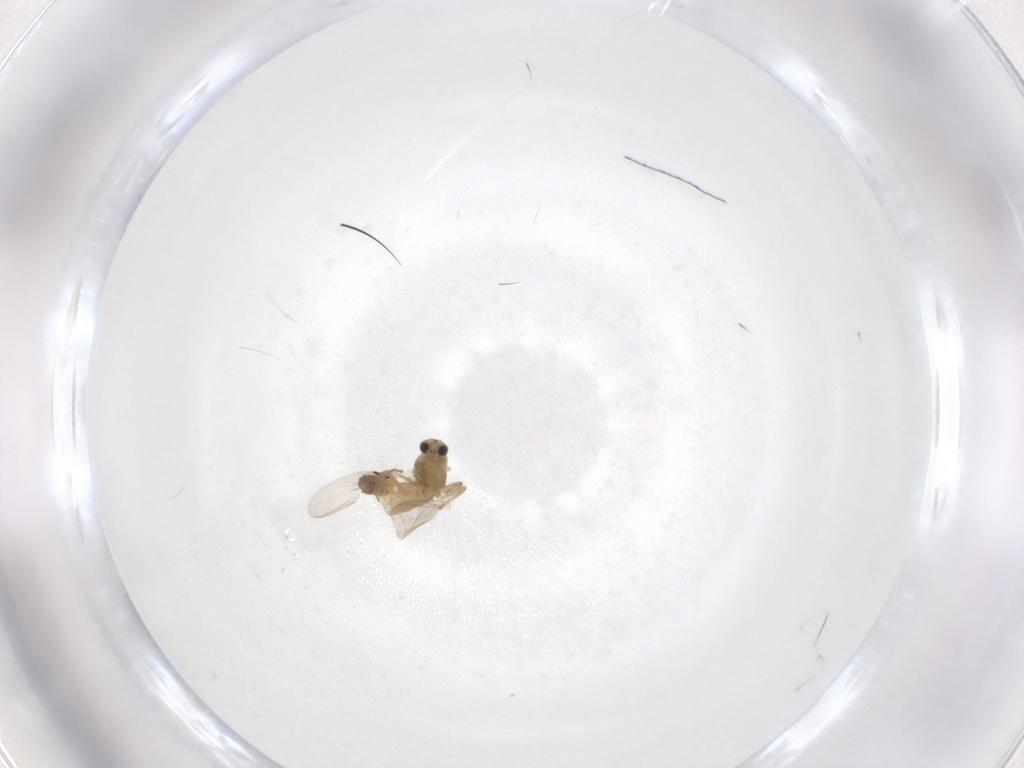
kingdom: Animalia
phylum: Arthropoda
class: Insecta
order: Diptera
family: Chironomidae
